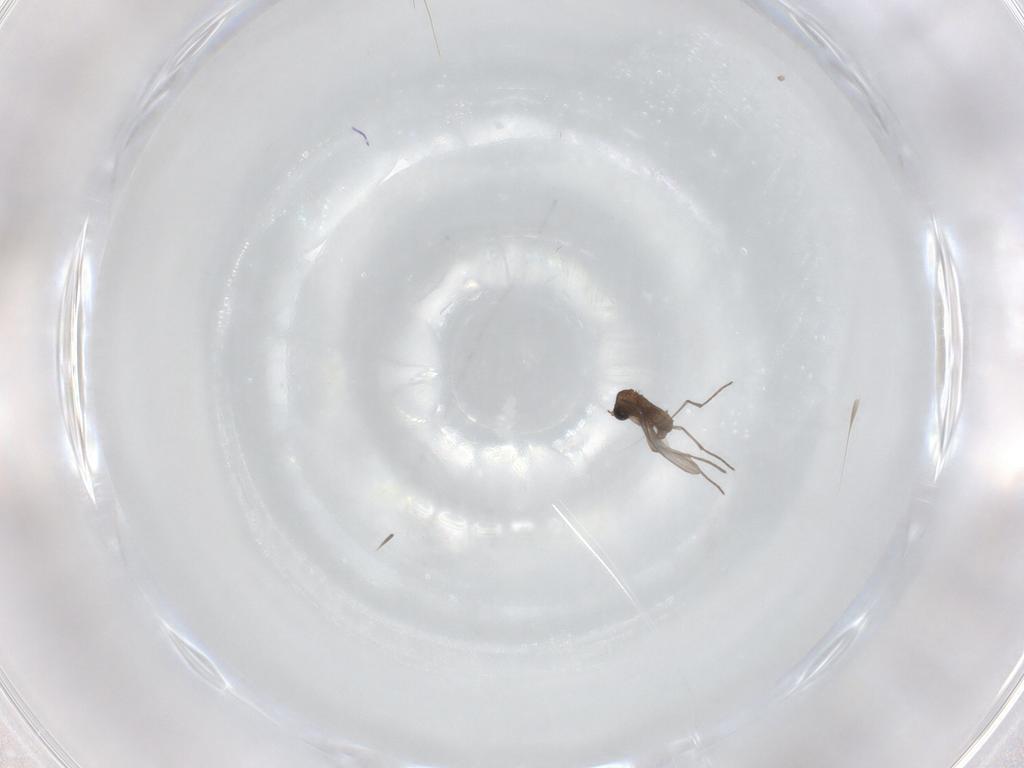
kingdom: Animalia
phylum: Arthropoda
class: Insecta
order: Diptera
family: Sciaridae
